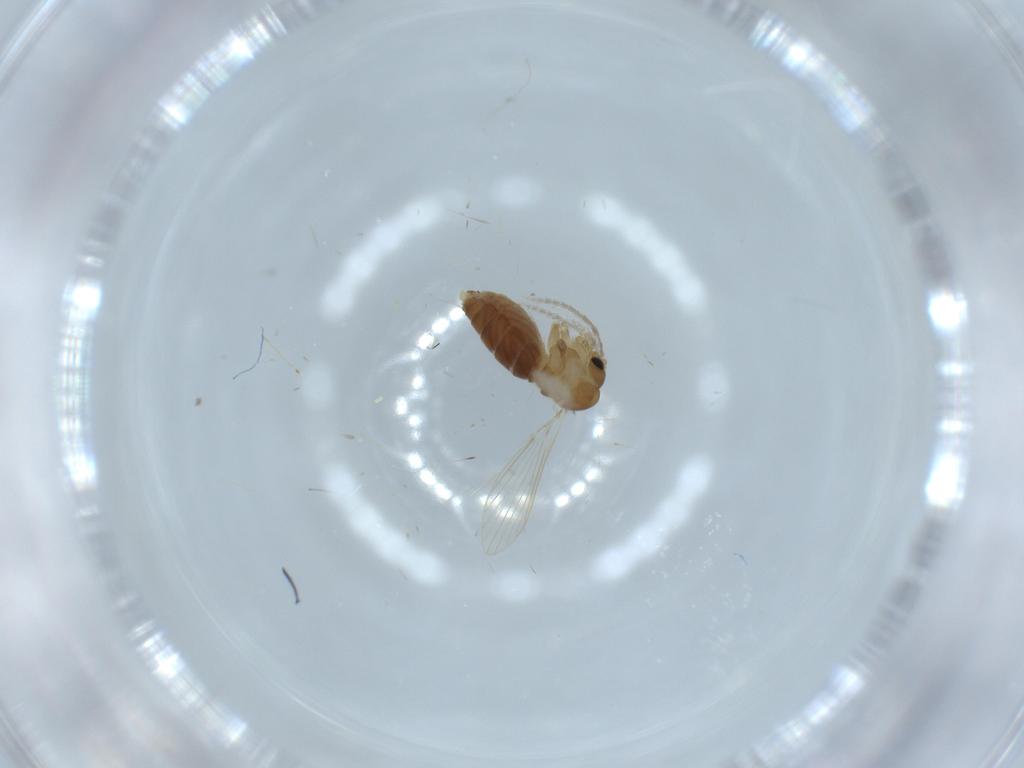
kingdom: Animalia
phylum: Arthropoda
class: Insecta
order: Diptera
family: Psychodidae
